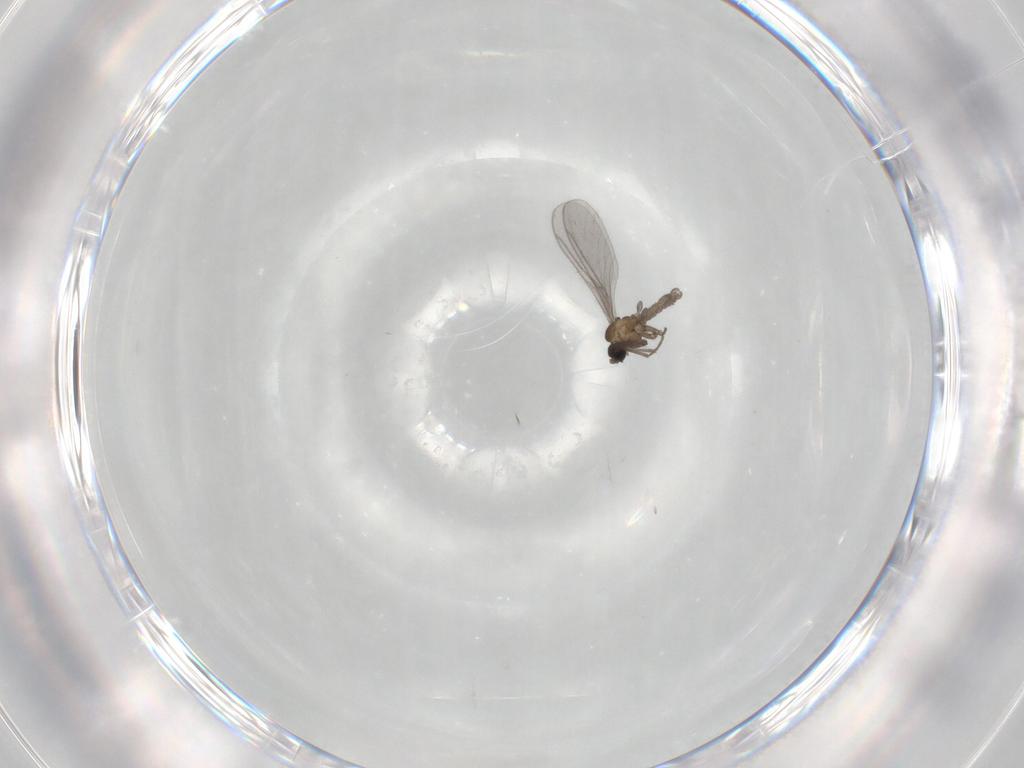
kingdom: Animalia
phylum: Arthropoda
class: Insecta
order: Diptera
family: Sciaridae
